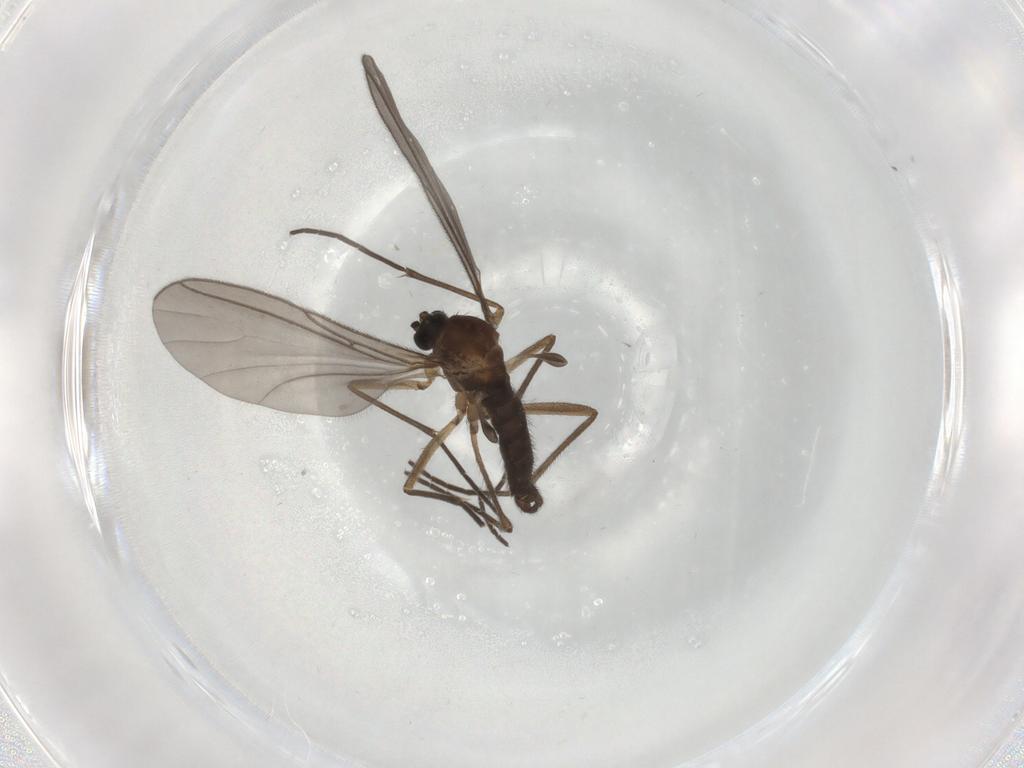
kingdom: Animalia
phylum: Arthropoda
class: Insecta
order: Diptera
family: Sciaridae
